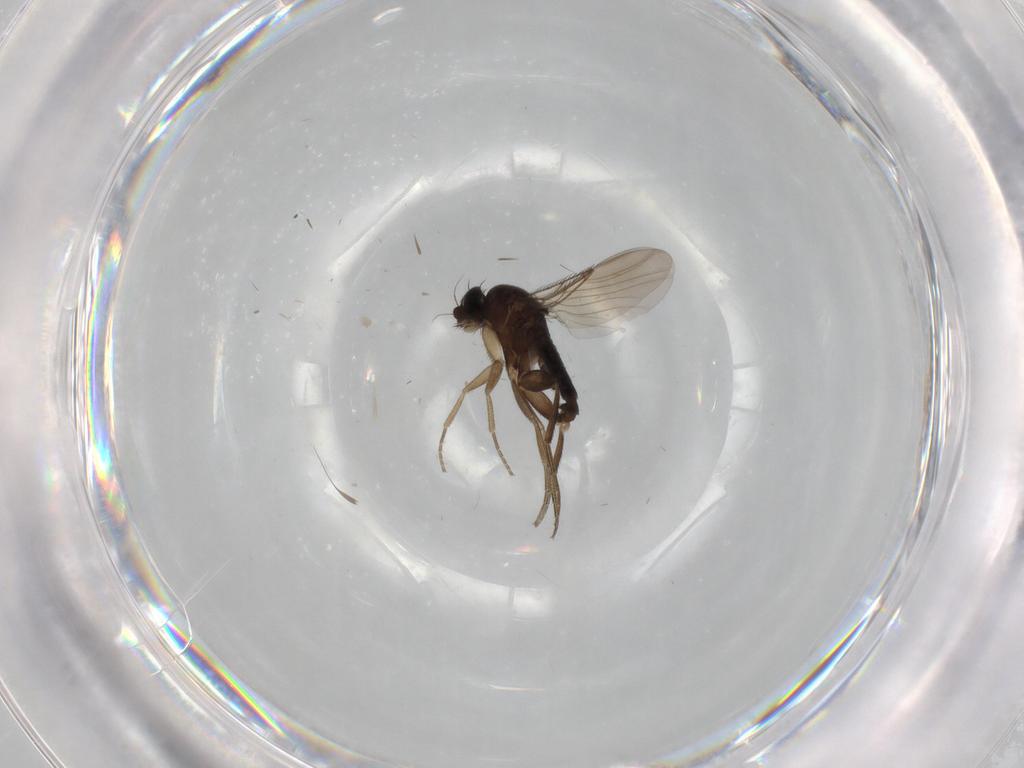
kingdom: Animalia
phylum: Arthropoda
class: Insecta
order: Diptera
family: Phoridae
